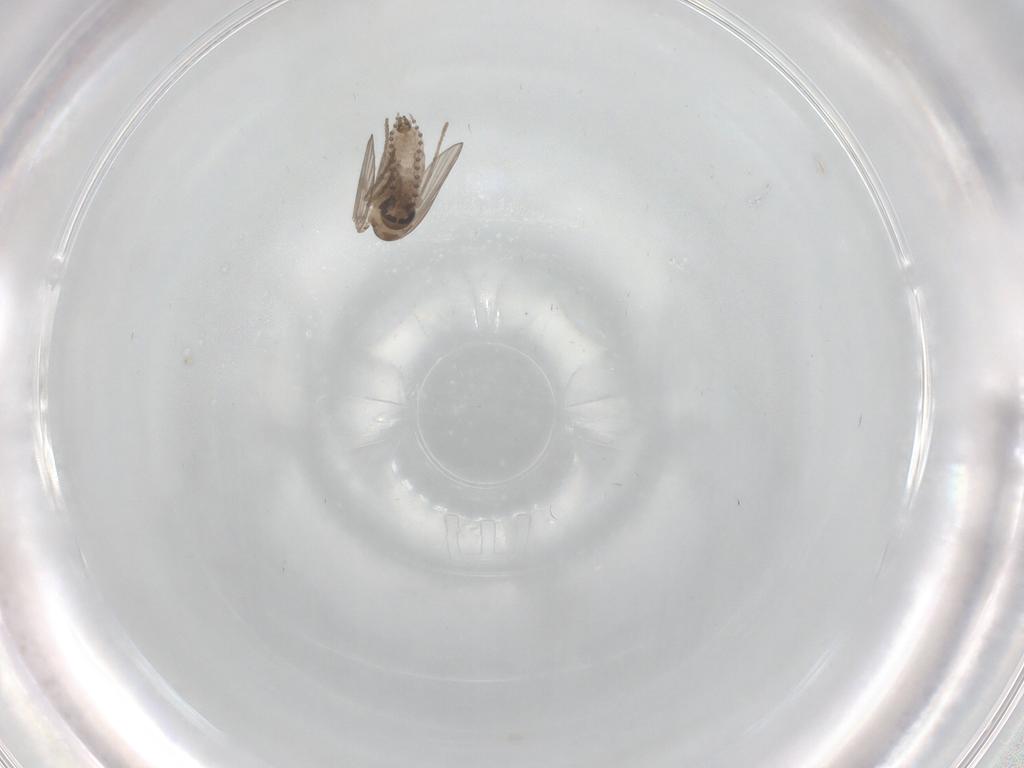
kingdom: Animalia
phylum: Arthropoda
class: Insecta
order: Diptera
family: Psychodidae
